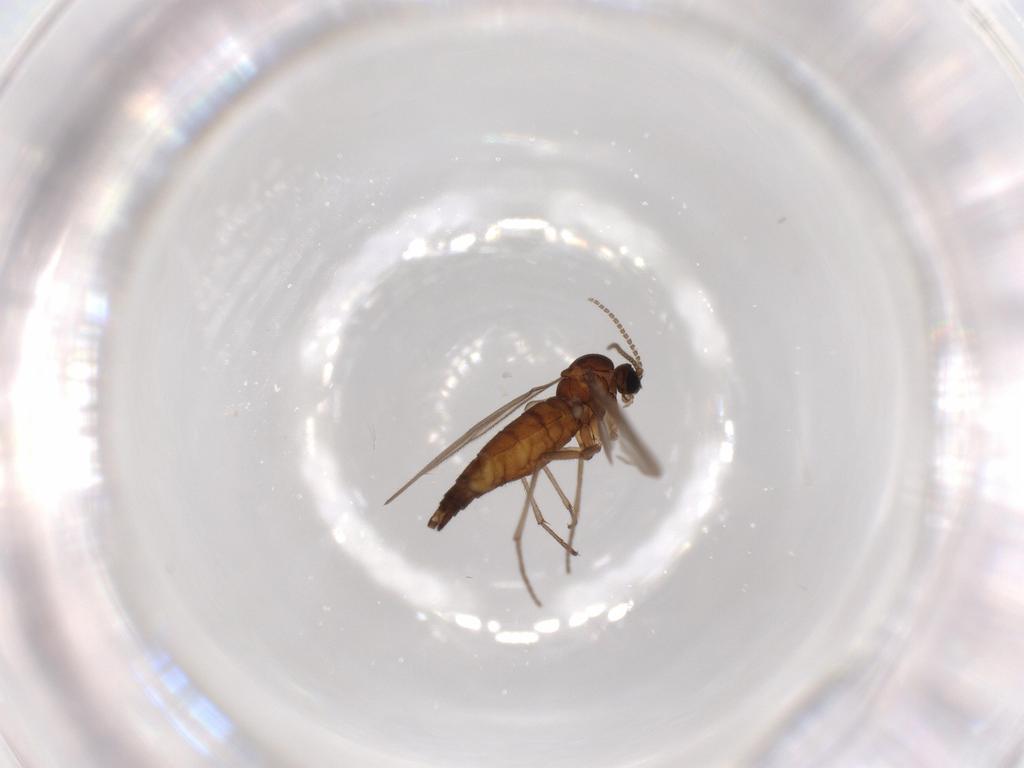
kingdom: Animalia
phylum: Arthropoda
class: Insecta
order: Diptera
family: Sciaridae
